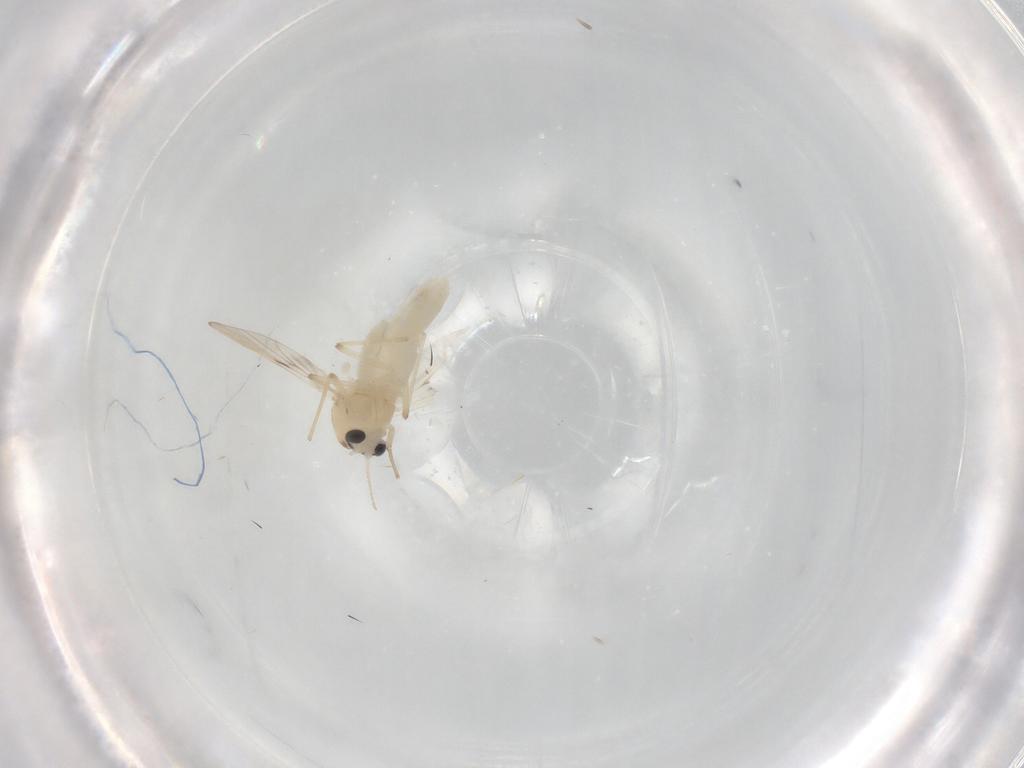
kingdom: Animalia
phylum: Arthropoda
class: Insecta
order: Diptera
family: Chironomidae
